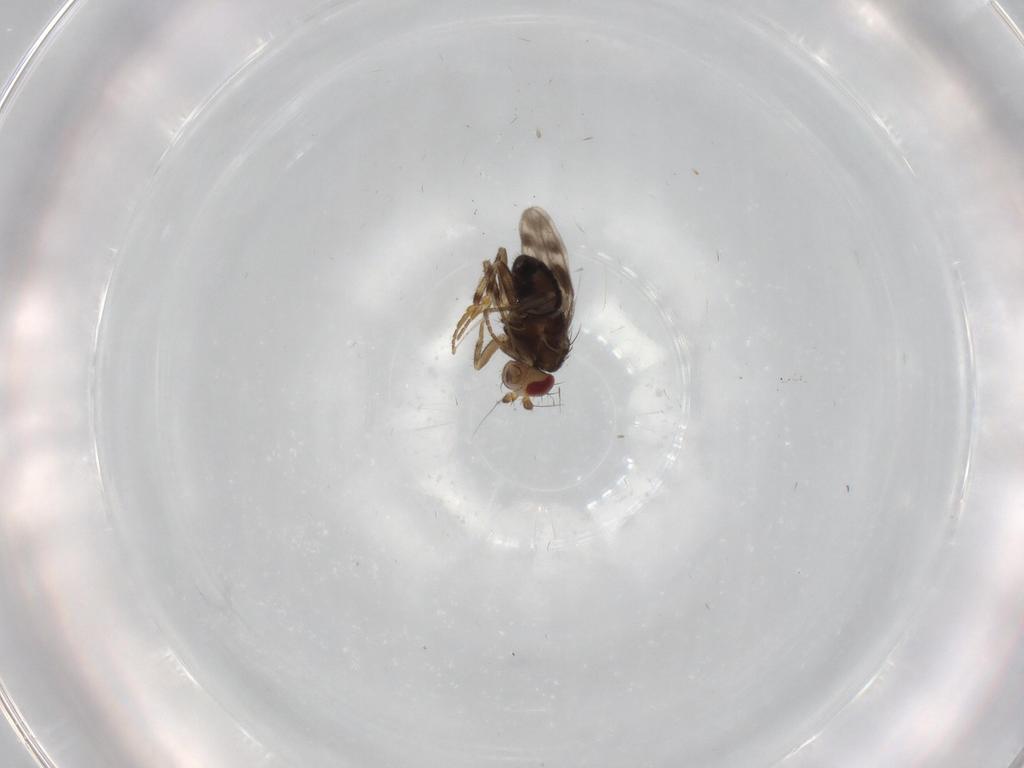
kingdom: Animalia
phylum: Arthropoda
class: Insecta
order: Diptera
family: Sphaeroceridae
